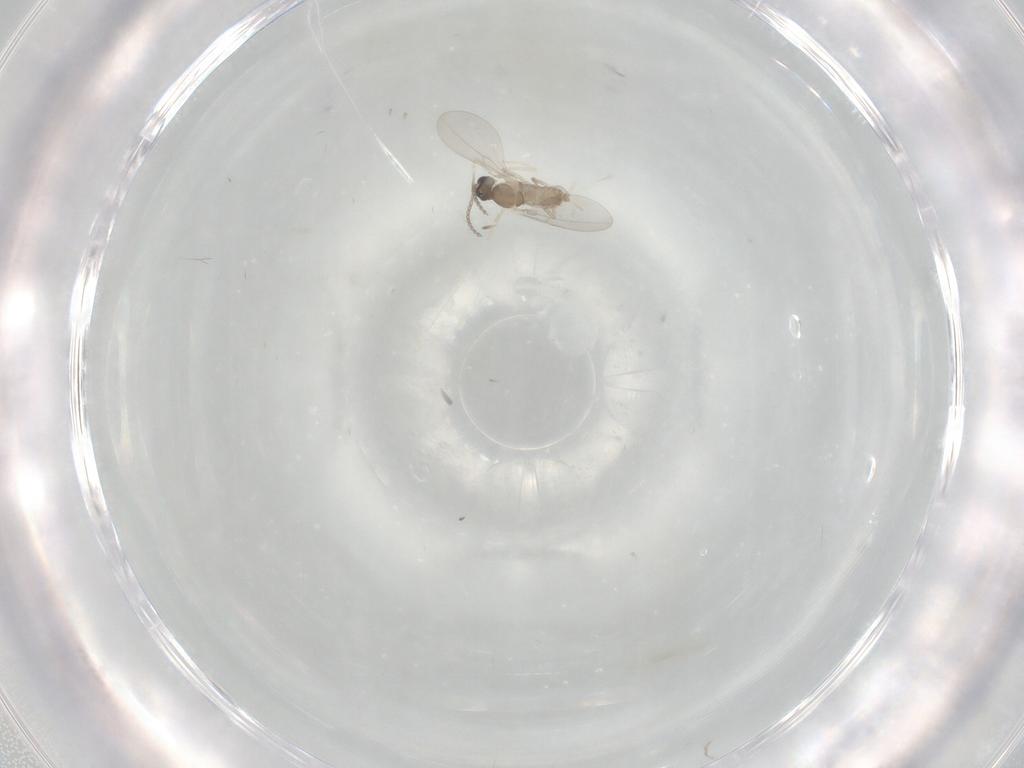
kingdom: Animalia
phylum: Arthropoda
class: Insecta
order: Diptera
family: Cecidomyiidae
